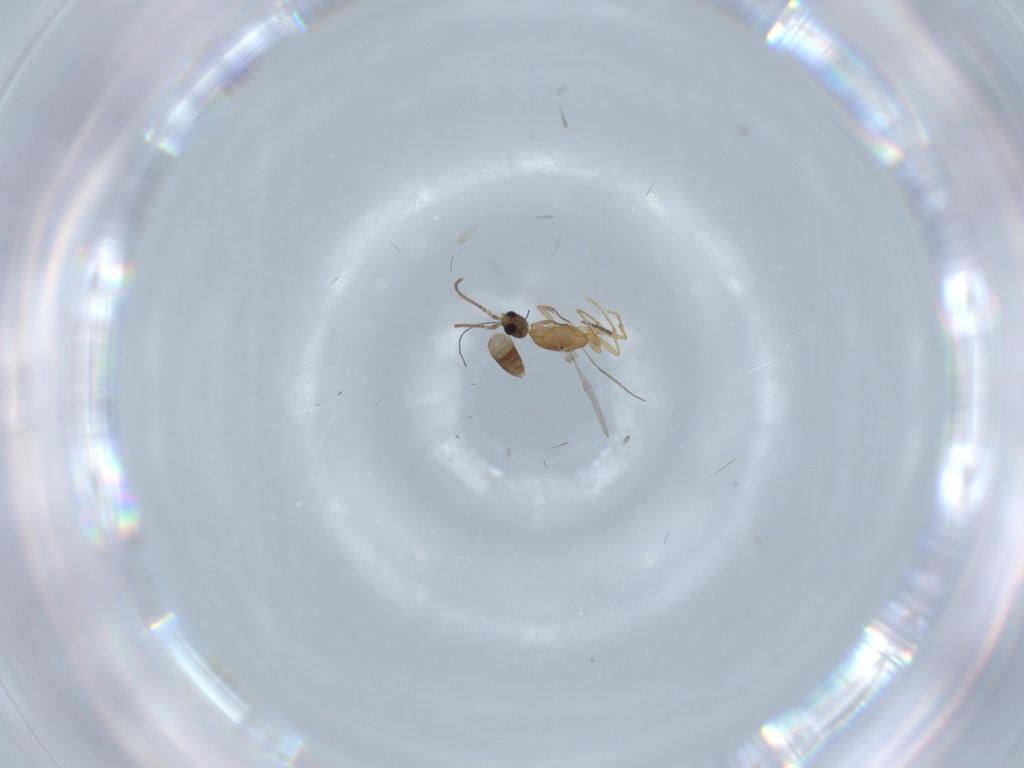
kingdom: Animalia
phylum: Arthropoda
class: Insecta
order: Hymenoptera
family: Formicidae
